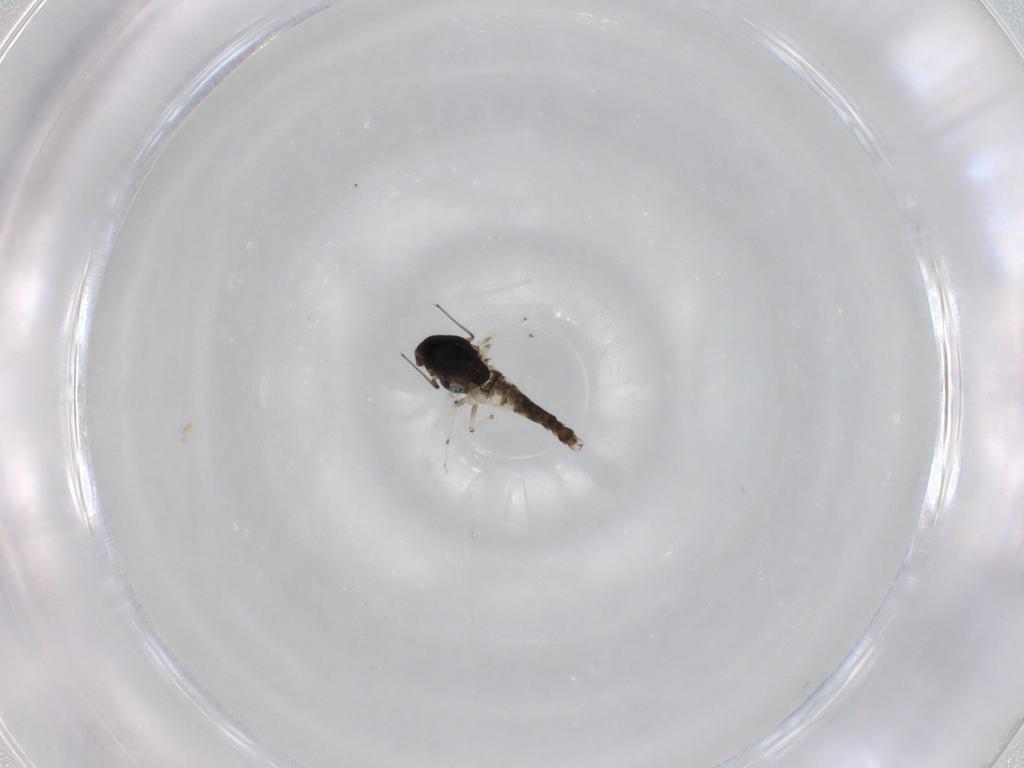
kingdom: Animalia
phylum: Arthropoda
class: Insecta
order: Diptera
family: Chironomidae
